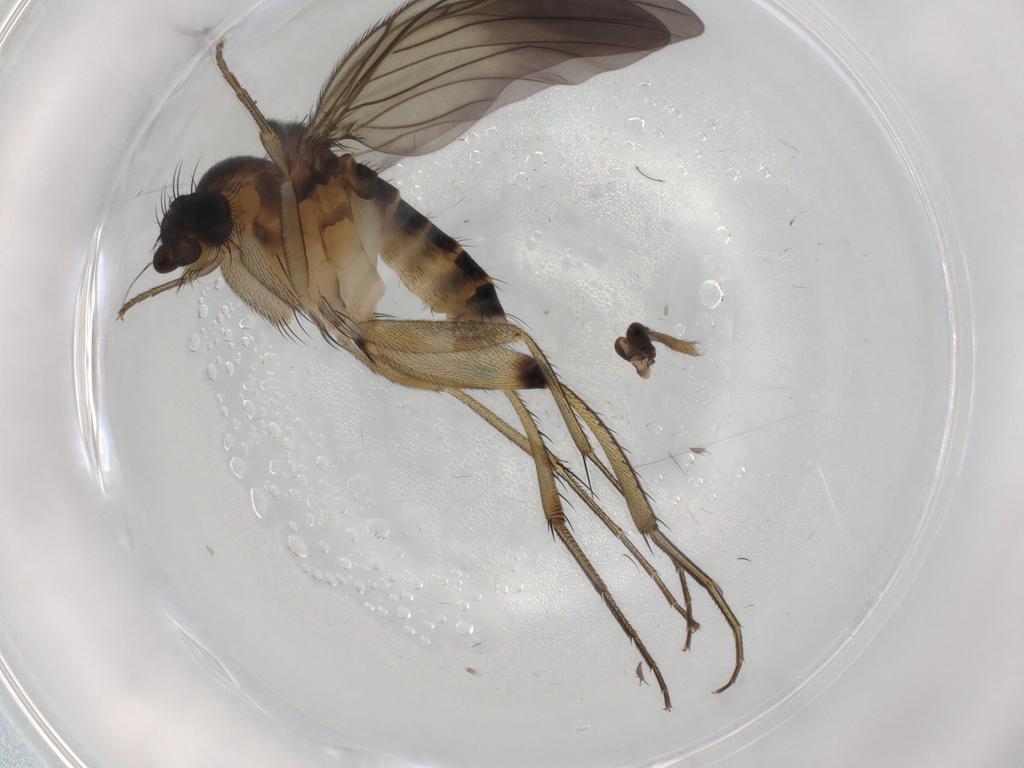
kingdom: Animalia
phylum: Arthropoda
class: Insecta
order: Diptera
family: Phoridae
